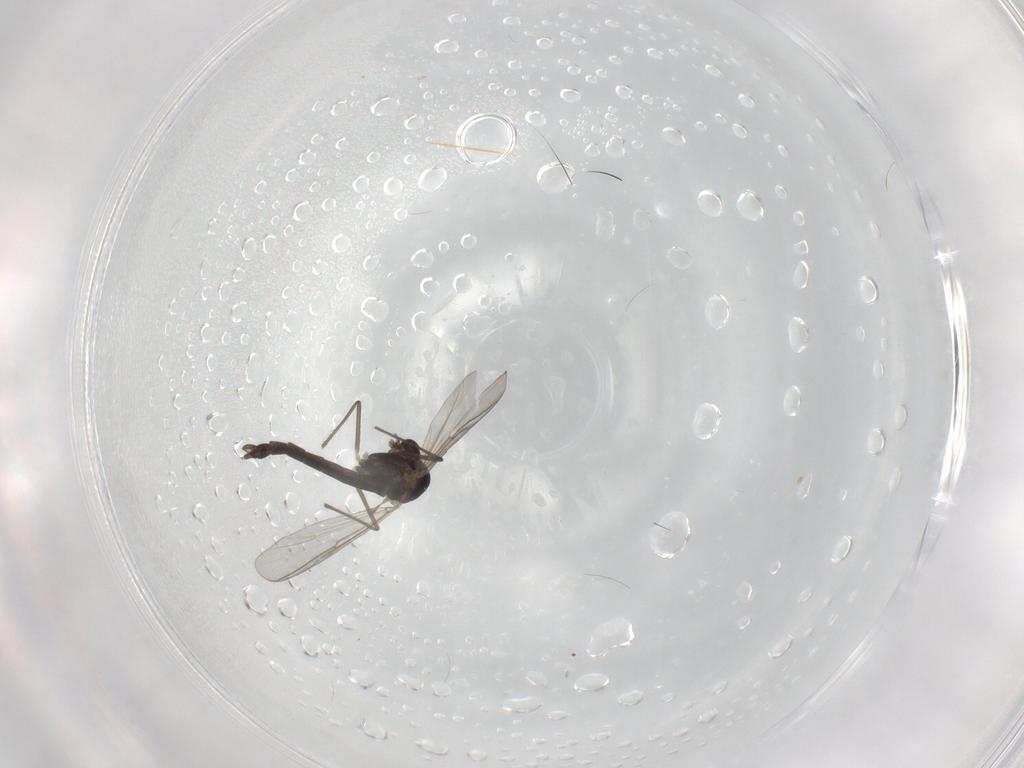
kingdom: Animalia
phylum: Arthropoda
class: Insecta
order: Diptera
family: Chironomidae
